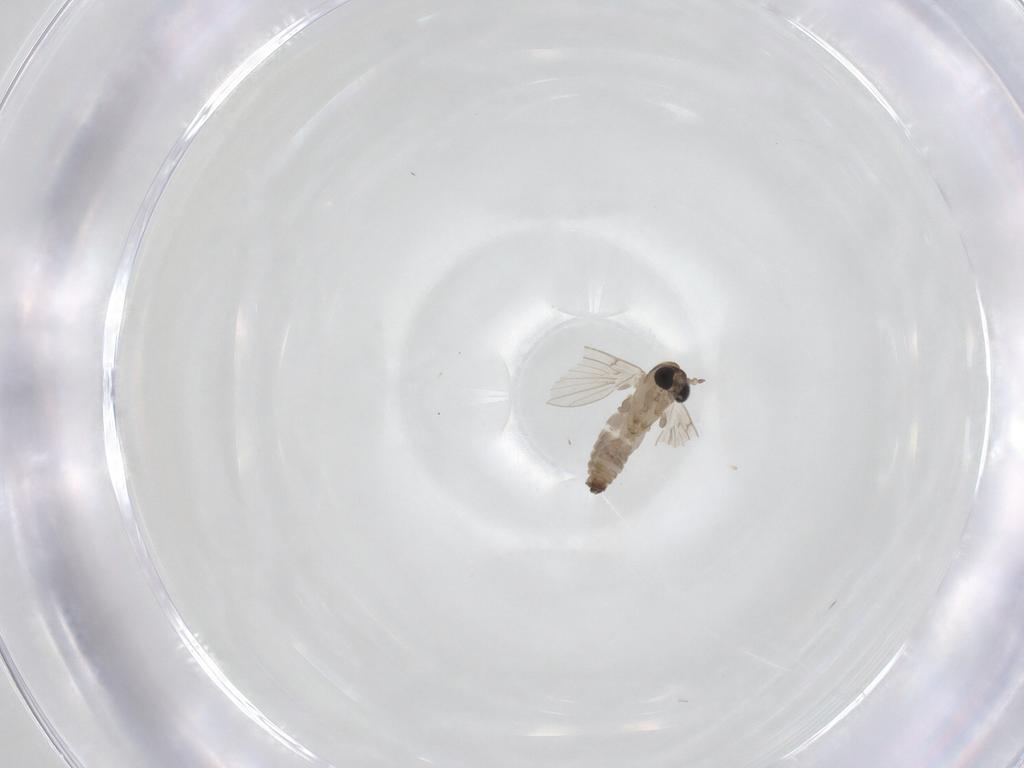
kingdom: Animalia
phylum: Arthropoda
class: Insecta
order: Diptera
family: Psychodidae
